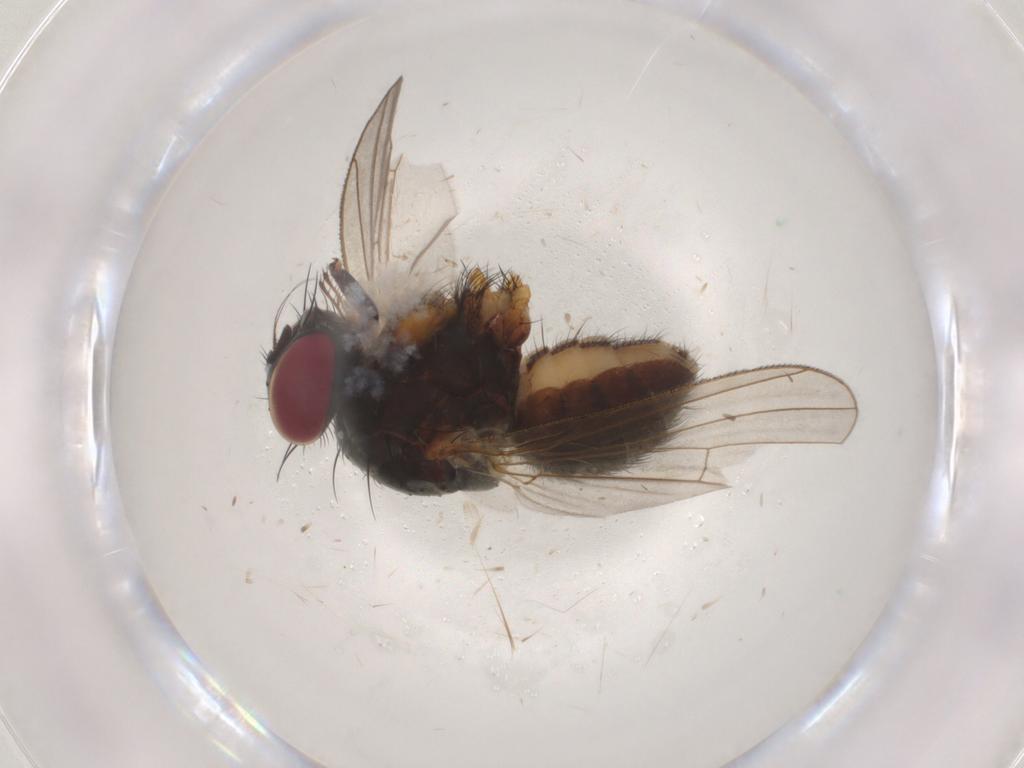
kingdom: Animalia
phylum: Arthropoda
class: Insecta
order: Diptera
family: Muscidae
